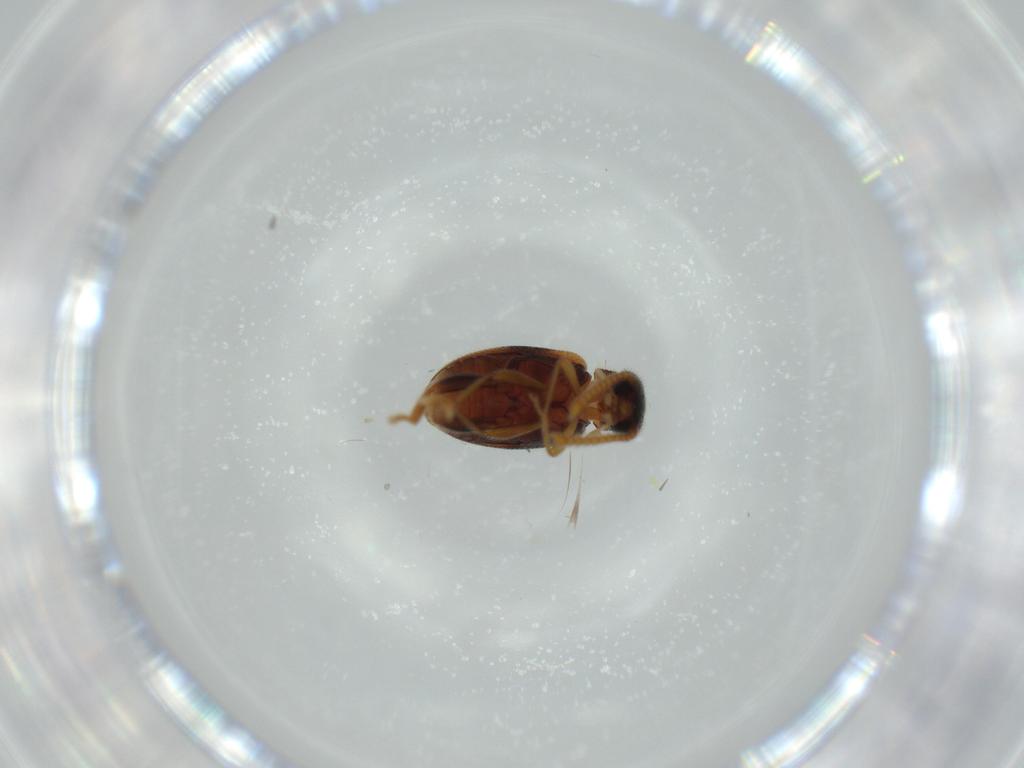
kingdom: Animalia
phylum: Arthropoda
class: Insecta
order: Coleoptera
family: Aderidae
